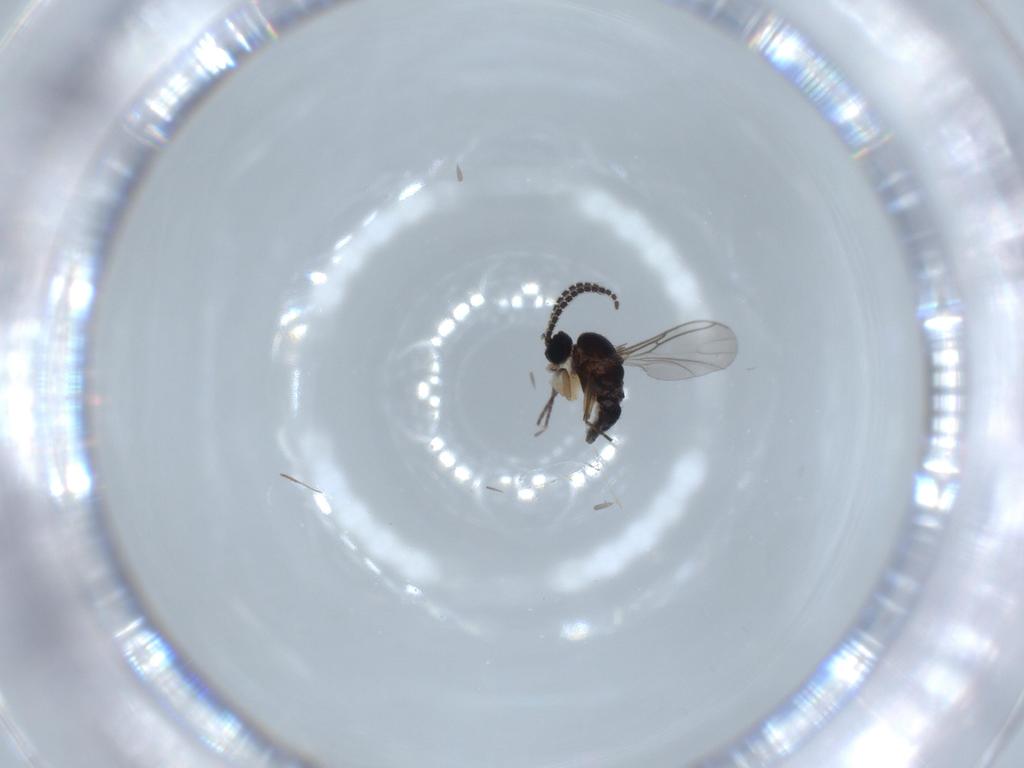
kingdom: Animalia
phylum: Arthropoda
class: Insecta
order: Diptera
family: Sciaridae
